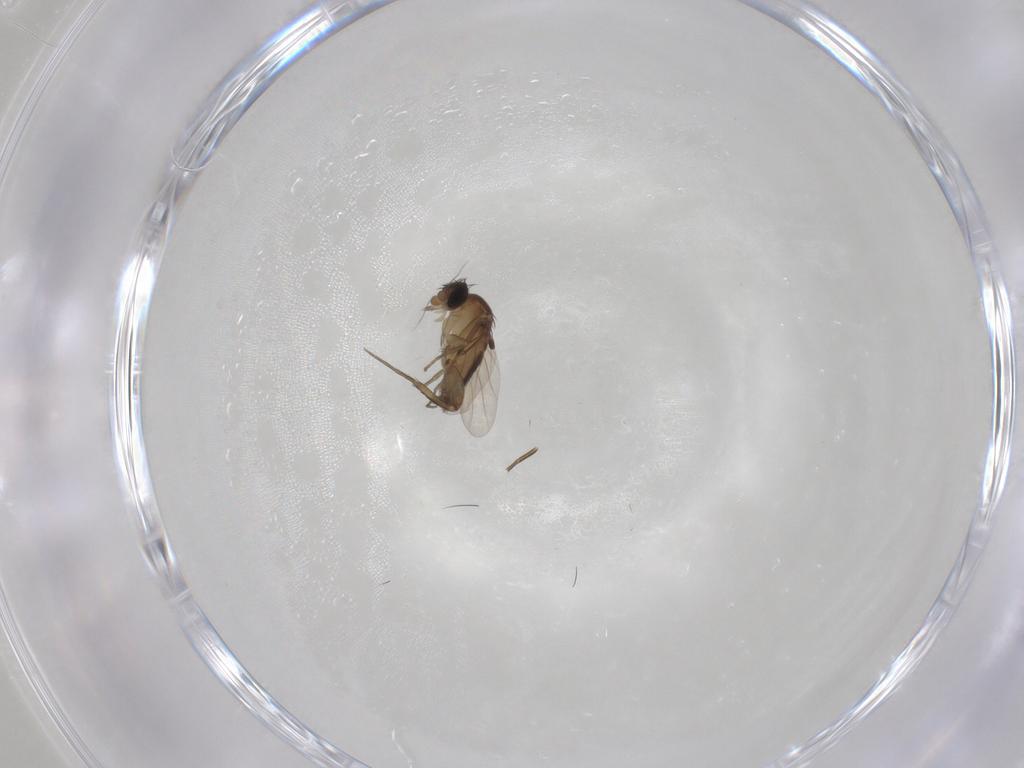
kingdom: Animalia
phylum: Arthropoda
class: Insecta
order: Diptera
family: Phoridae
